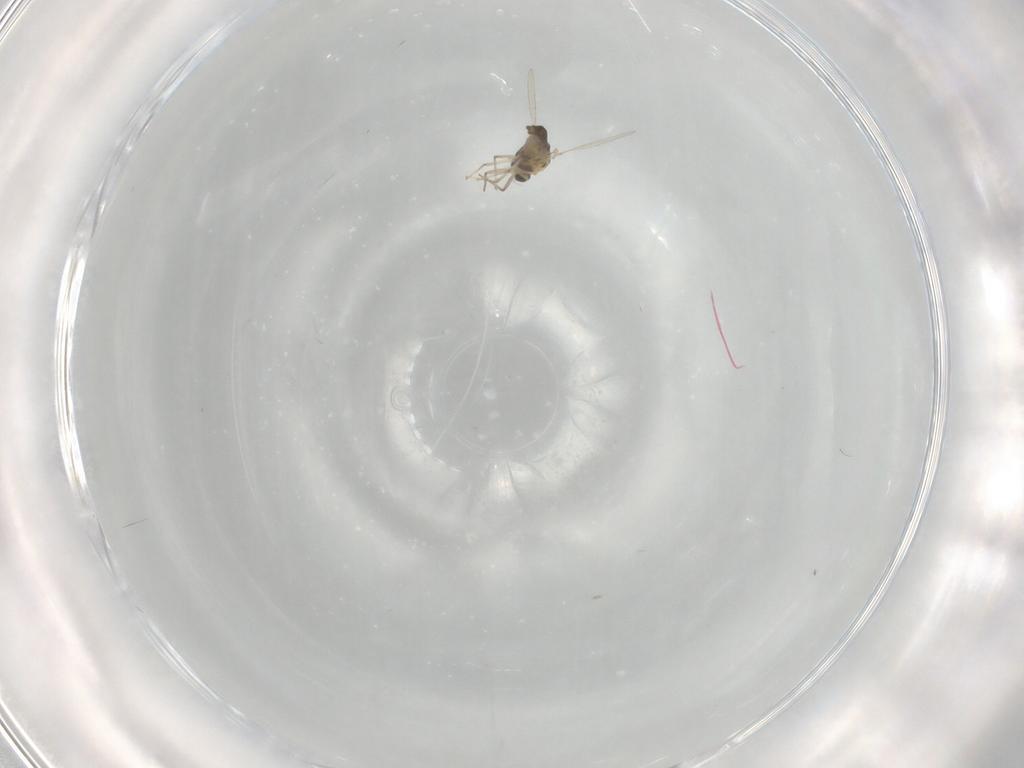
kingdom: Animalia
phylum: Arthropoda
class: Insecta
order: Diptera
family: Chironomidae
